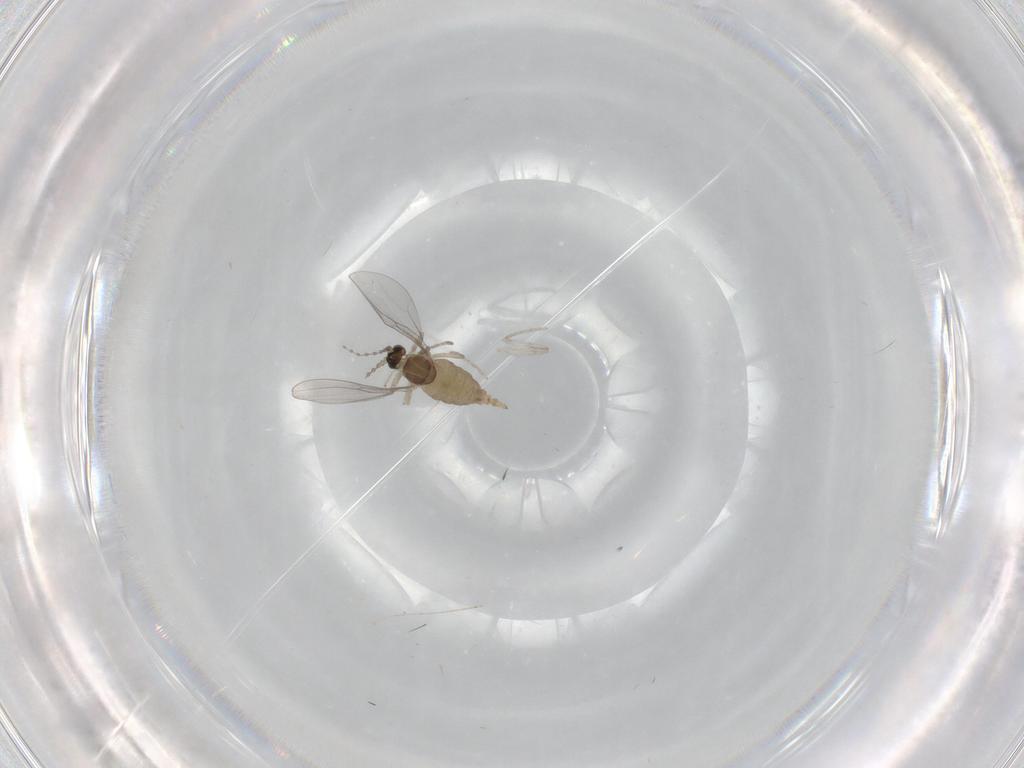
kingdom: Animalia
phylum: Arthropoda
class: Insecta
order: Diptera
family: Cecidomyiidae
